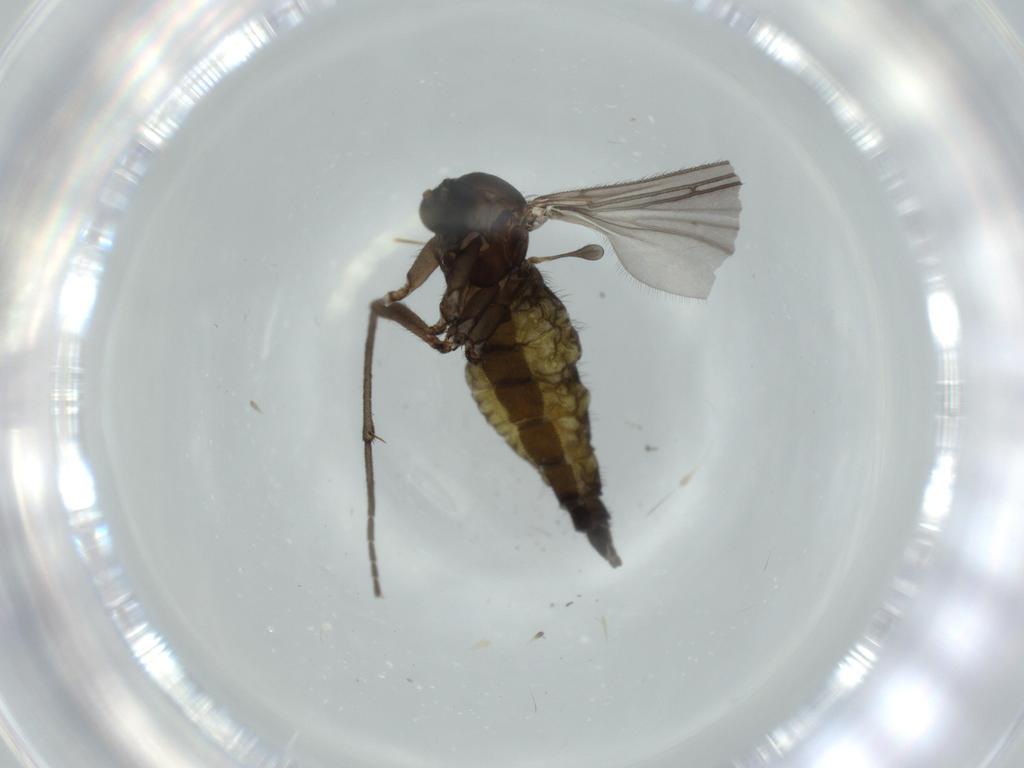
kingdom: Animalia
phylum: Arthropoda
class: Insecta
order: Diptera
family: Sciaridae
